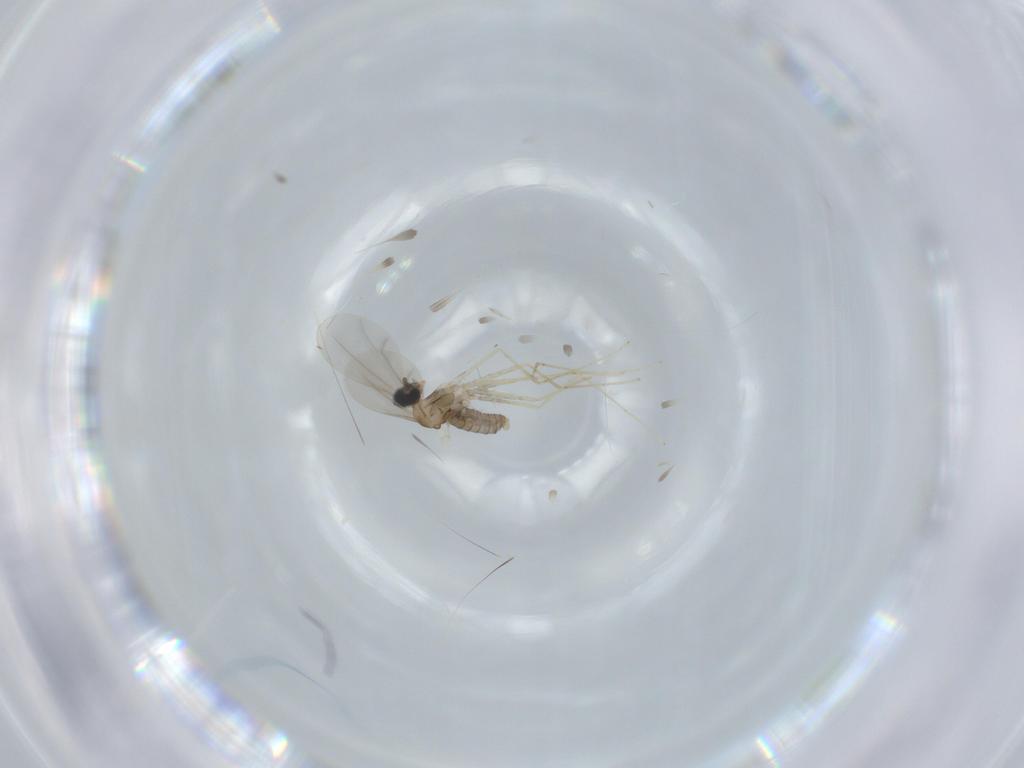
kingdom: Animalia
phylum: Arthropoda
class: Insecta
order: Diptera
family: Cecidomyiidae
